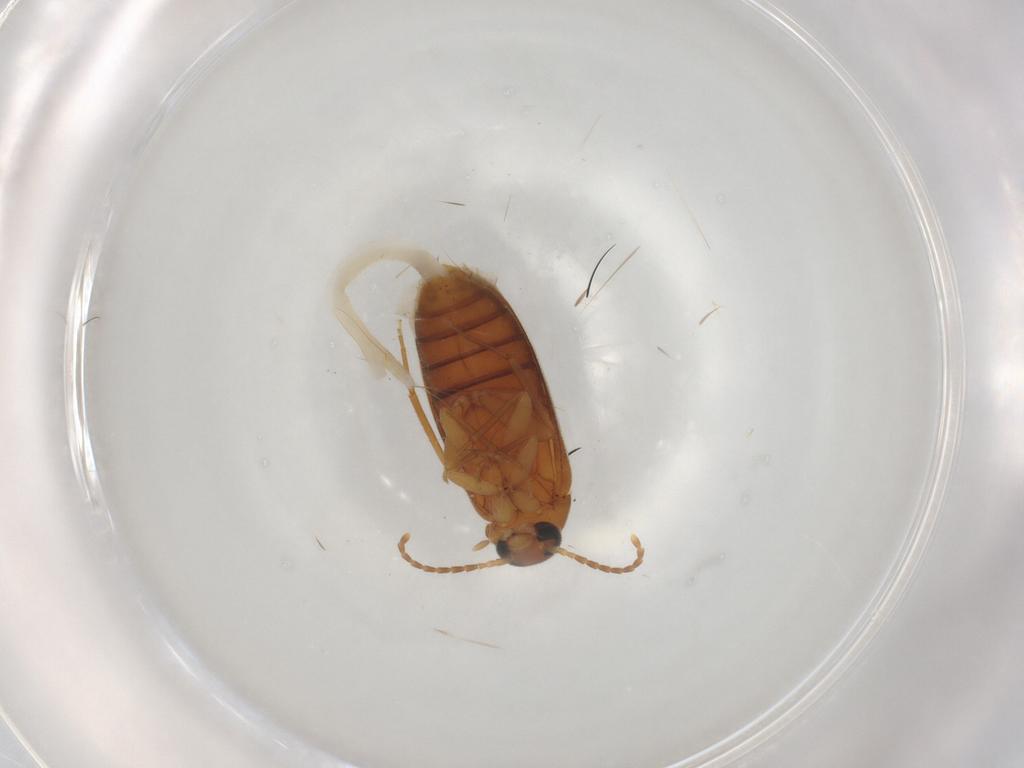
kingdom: Animalia
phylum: Arthropoda
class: Insecta
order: Coleoptera
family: Scraptiidae
